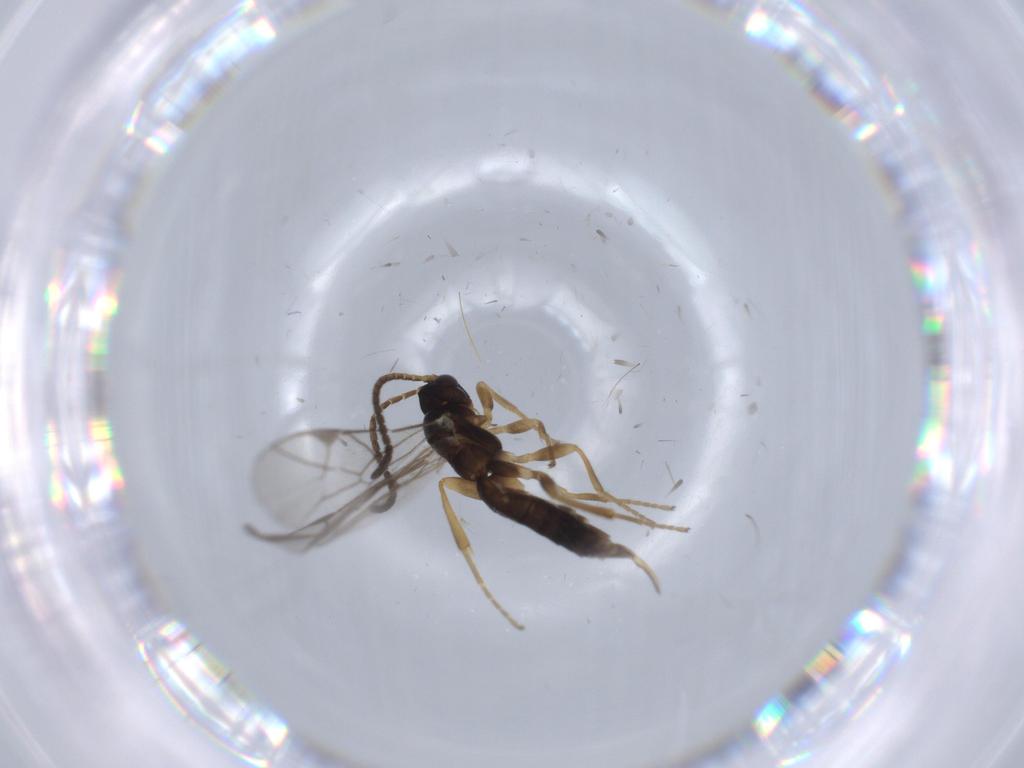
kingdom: Animalia
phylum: Arthropoda
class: Insecta
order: Hymenoptera
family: Ichneumonidae
